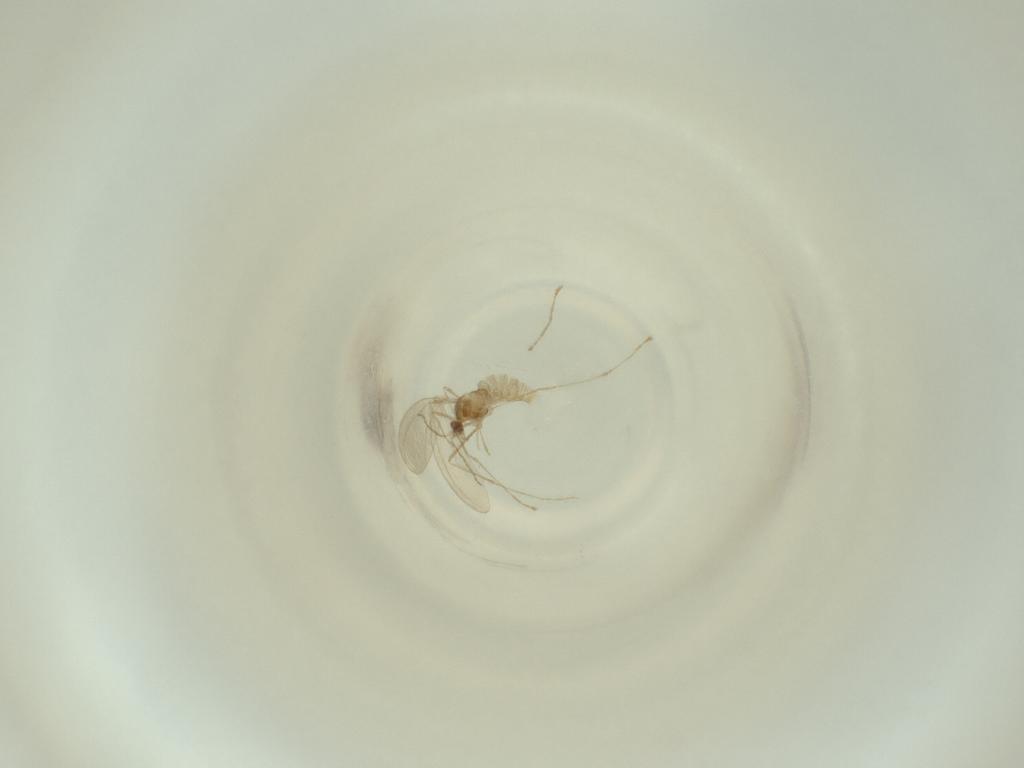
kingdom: Animalia
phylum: Arthropoda
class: Insecta
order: Diptera
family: Cecidomyiidae
